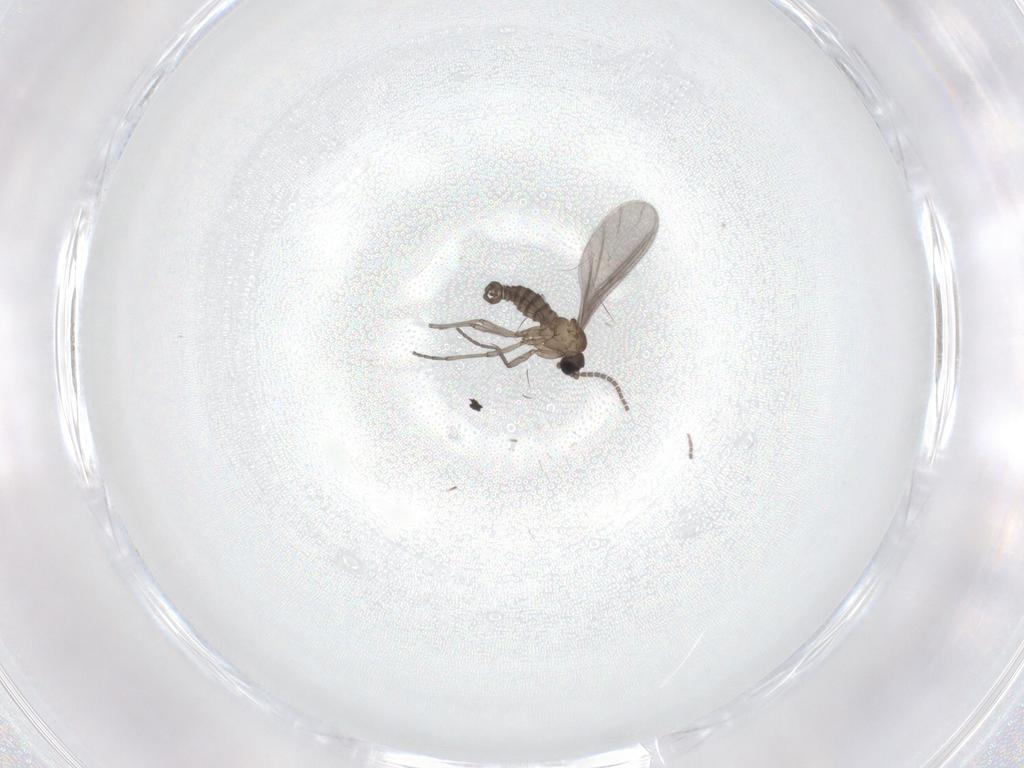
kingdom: Animalia
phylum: Arthropoda
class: Insecta
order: Diptera
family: Sciaridae
